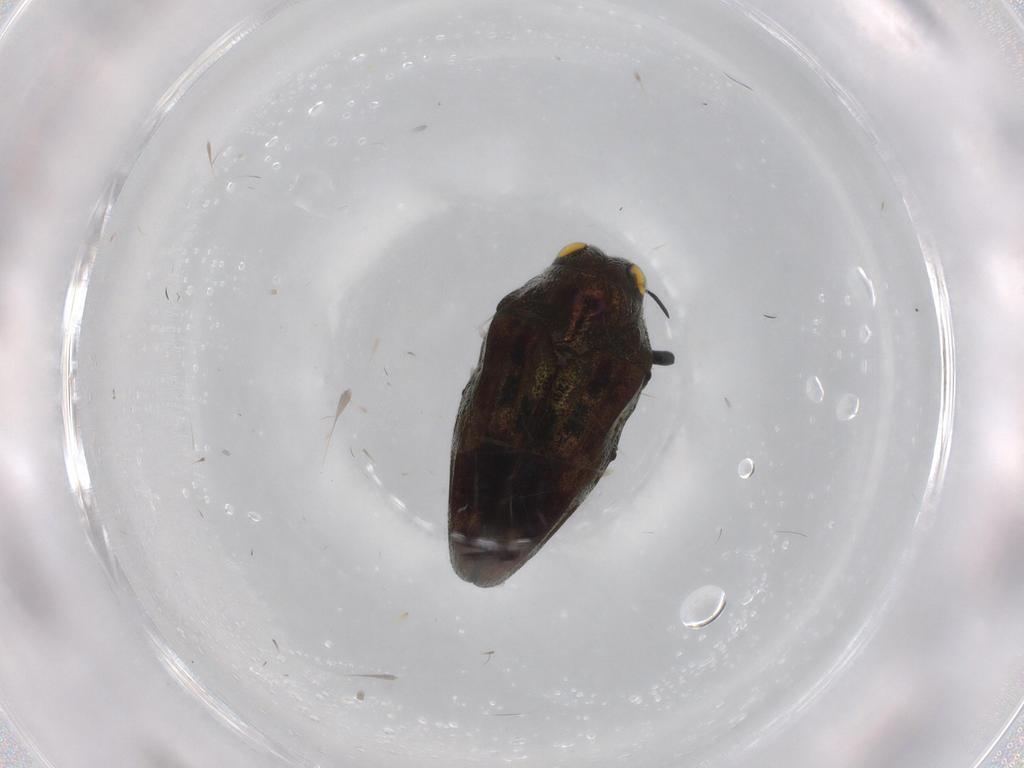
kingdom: Animalia
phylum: Arthropoda
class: Insecta
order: Coleoptera
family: Buprestidae
